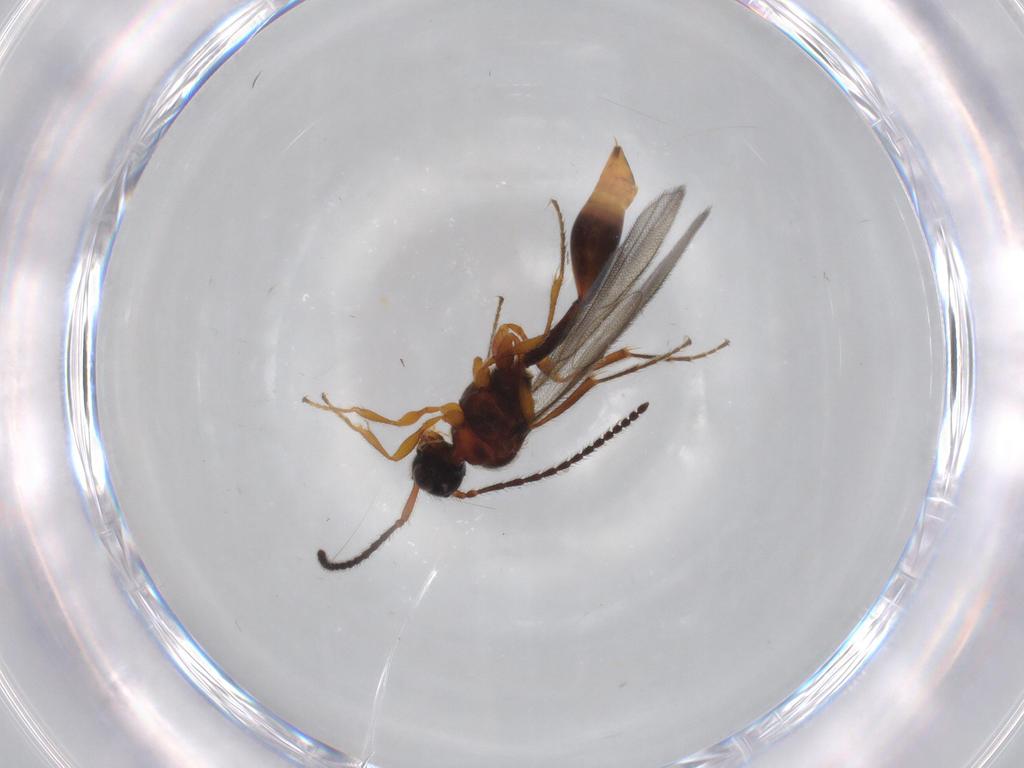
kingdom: Animalia
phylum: Arthropoda
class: Insecta
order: Hymenoptera
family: Diapriidae
